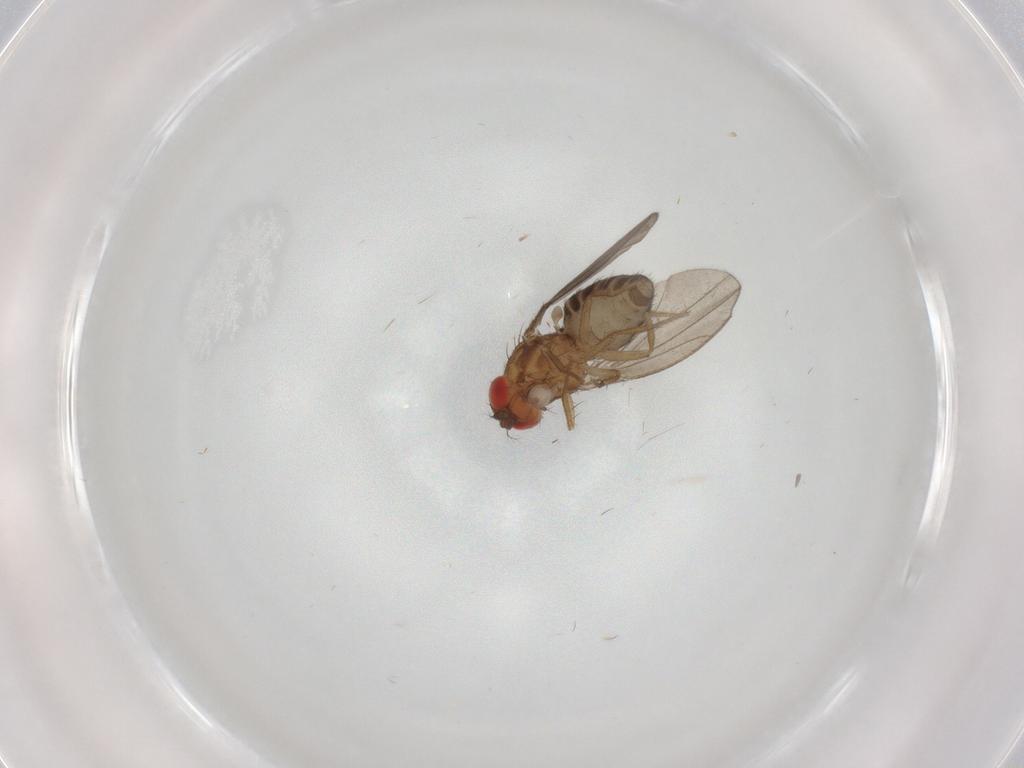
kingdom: Animalia
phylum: Arthropoda
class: Insecta
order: Diptera
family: Drosophilidae
